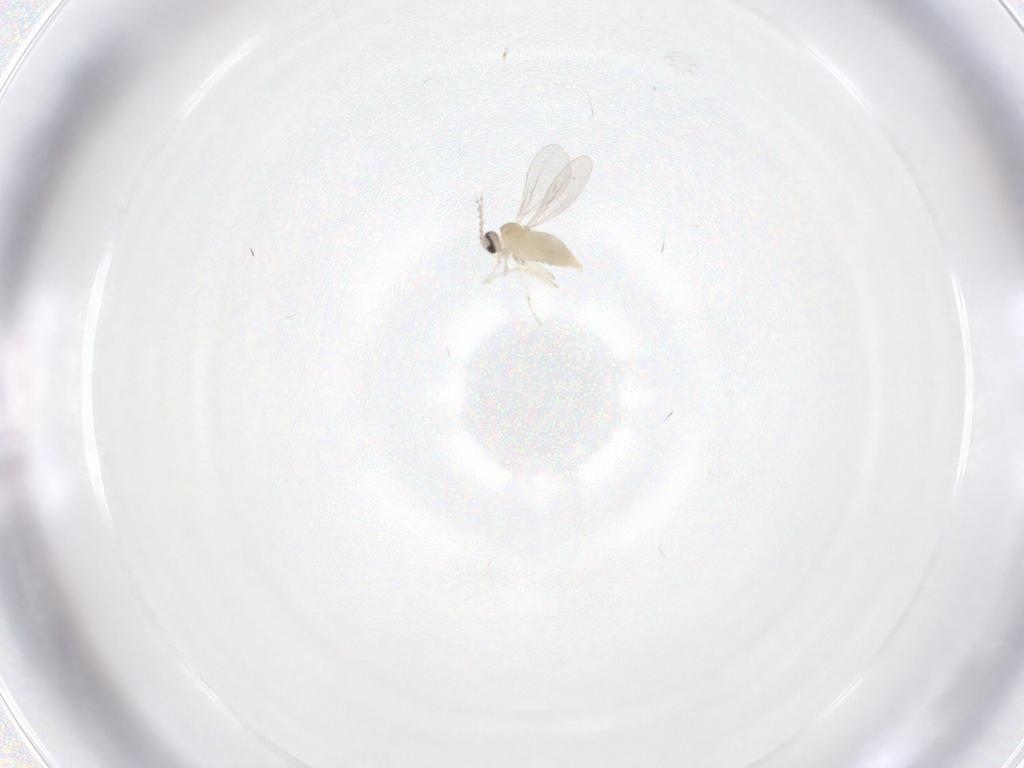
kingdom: Animalia
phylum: Arthropoda
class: Insecta
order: Diptera
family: Cecidomyiidae
